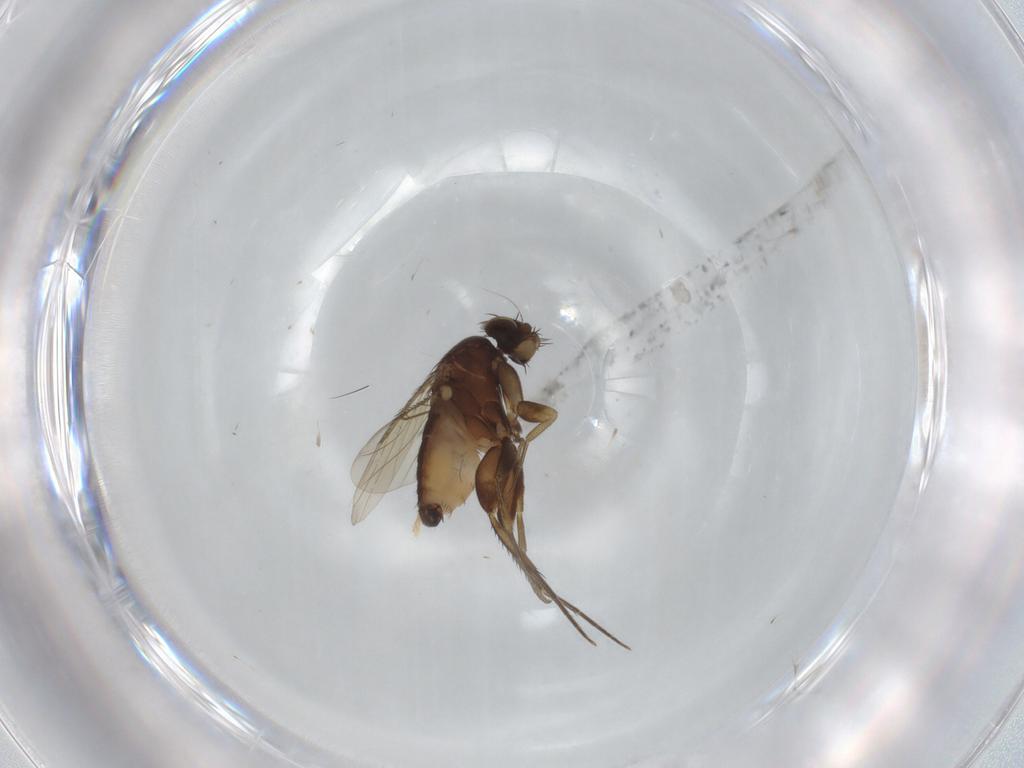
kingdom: Animalia
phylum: Arthropoda
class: Insecta
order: Diptera
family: Phoridae
